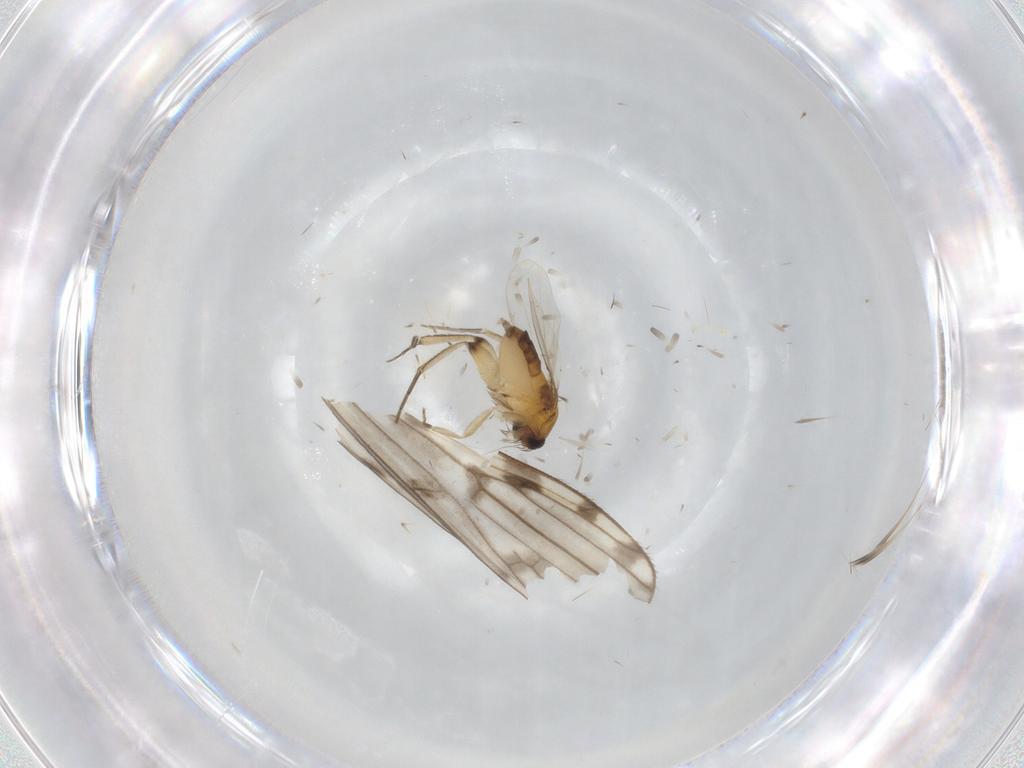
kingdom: Animalia
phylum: Arthropoda
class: Insecta
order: Diptera
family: Limoniidae
